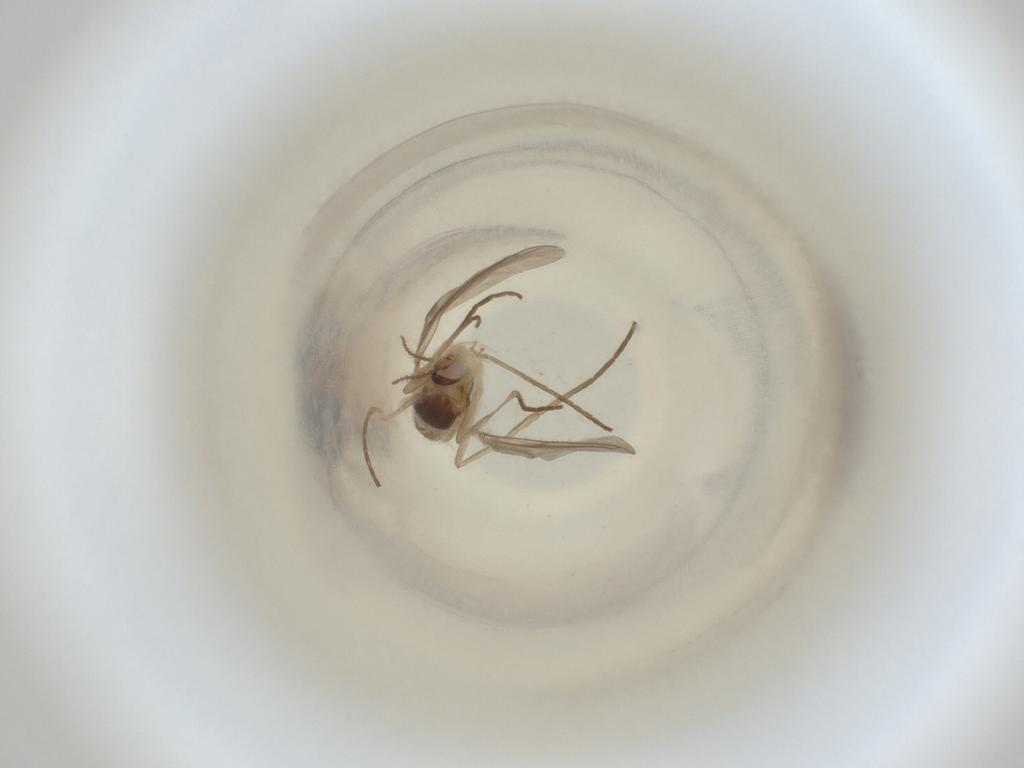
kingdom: Animalia
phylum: Arthropoda
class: Insecta
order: Diptera
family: Cecidomyiidae
